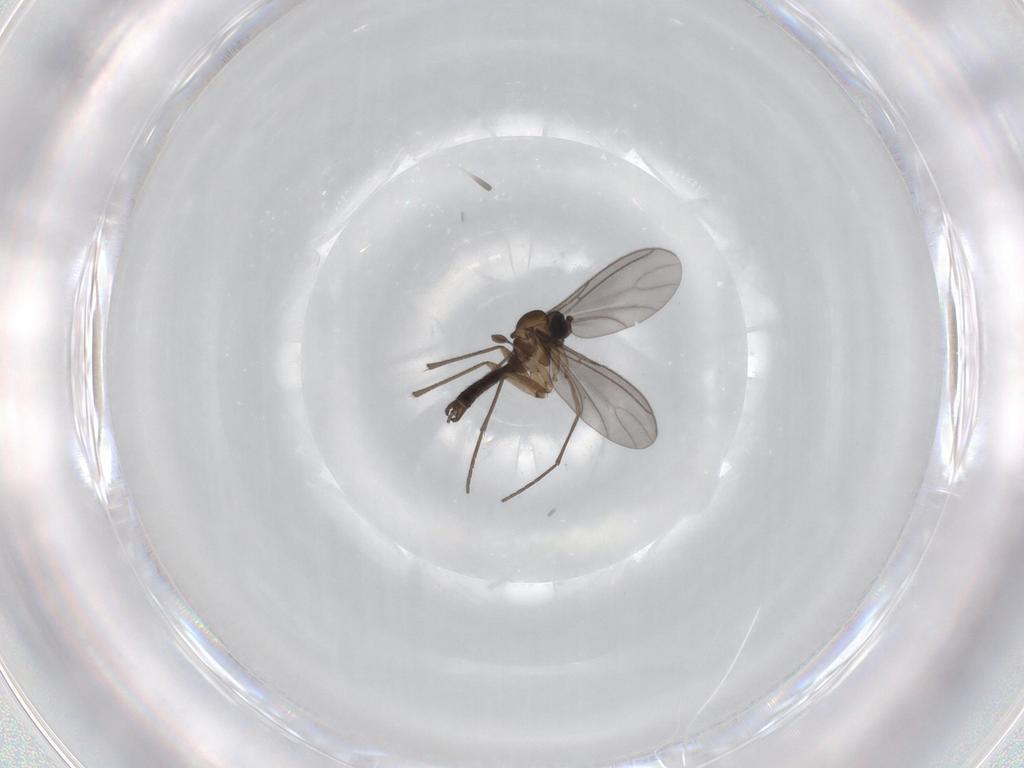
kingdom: Animalia
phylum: Arthropoda
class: Insecta
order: Diptera
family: Sciaridae
